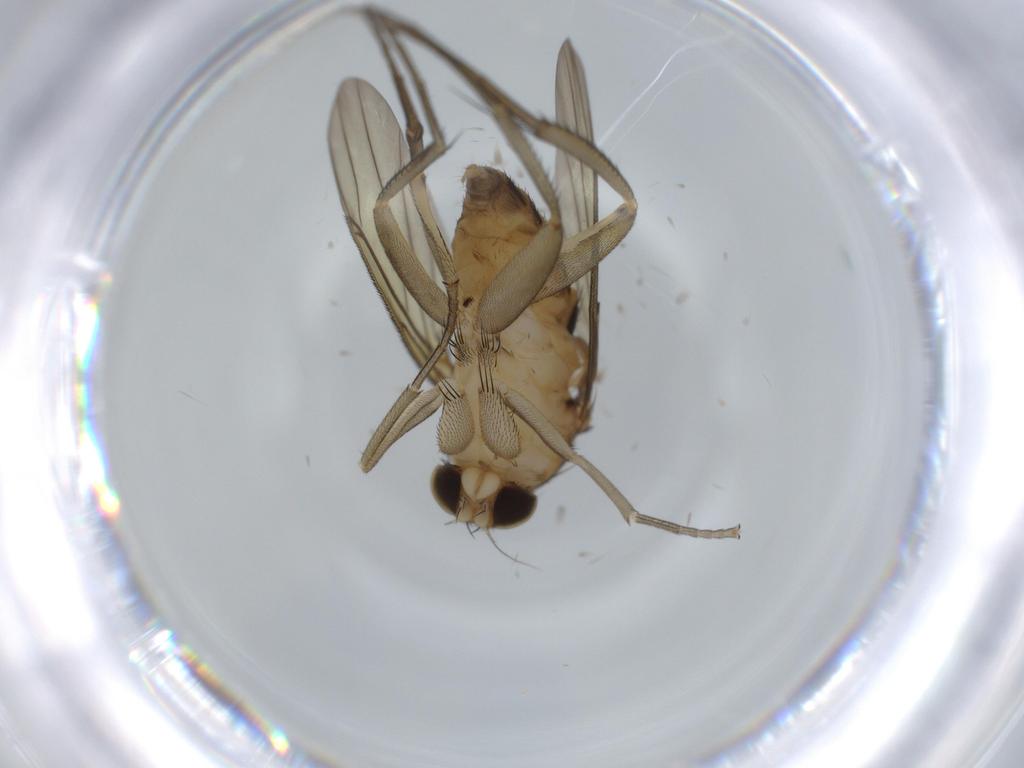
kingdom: Animalia
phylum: Arthropoda
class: Insecta
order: Diptera
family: Phoridae
